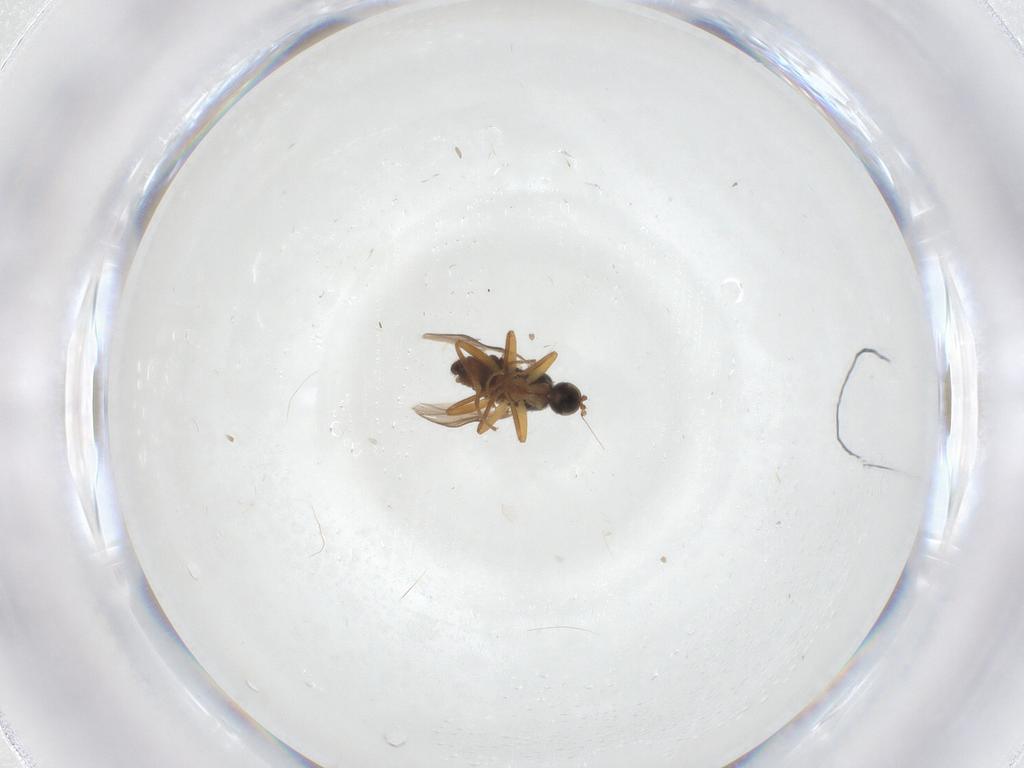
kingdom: Animalia
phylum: Arthropoda
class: Insecta
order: Diptera
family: Hybotidae
